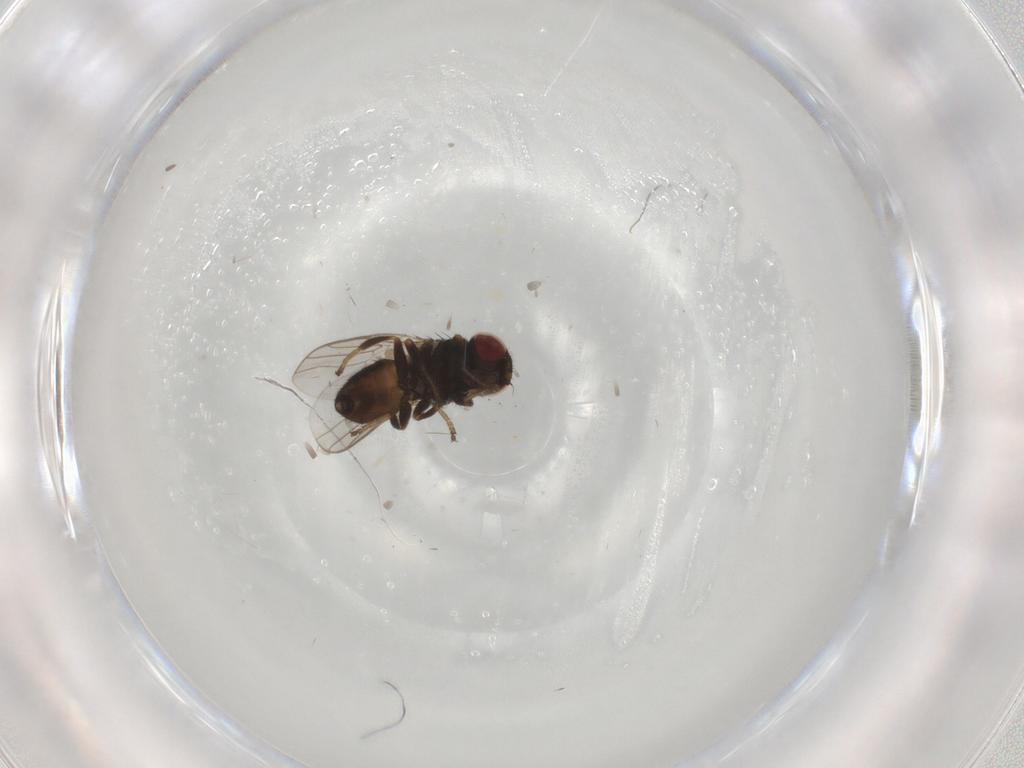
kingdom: Animalia
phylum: Arthropoda
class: Insecta
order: Diptera
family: Chloropidae
